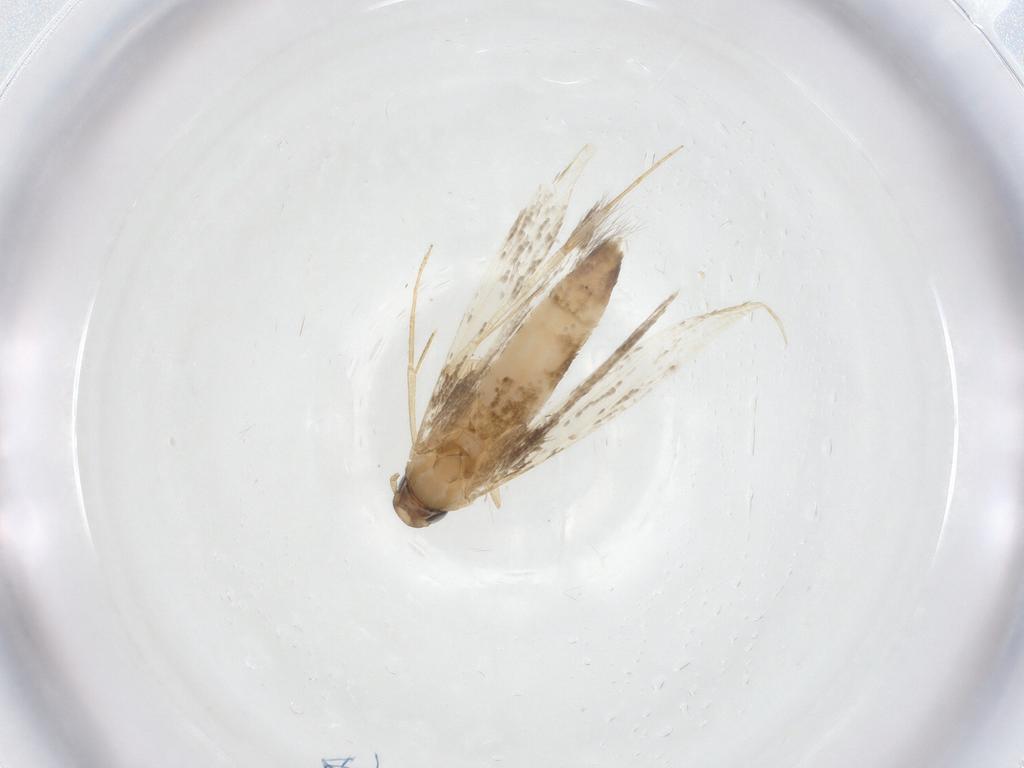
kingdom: Animalia
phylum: Arthropoda
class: Insecta
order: Lepidoptera
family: Crambidae
